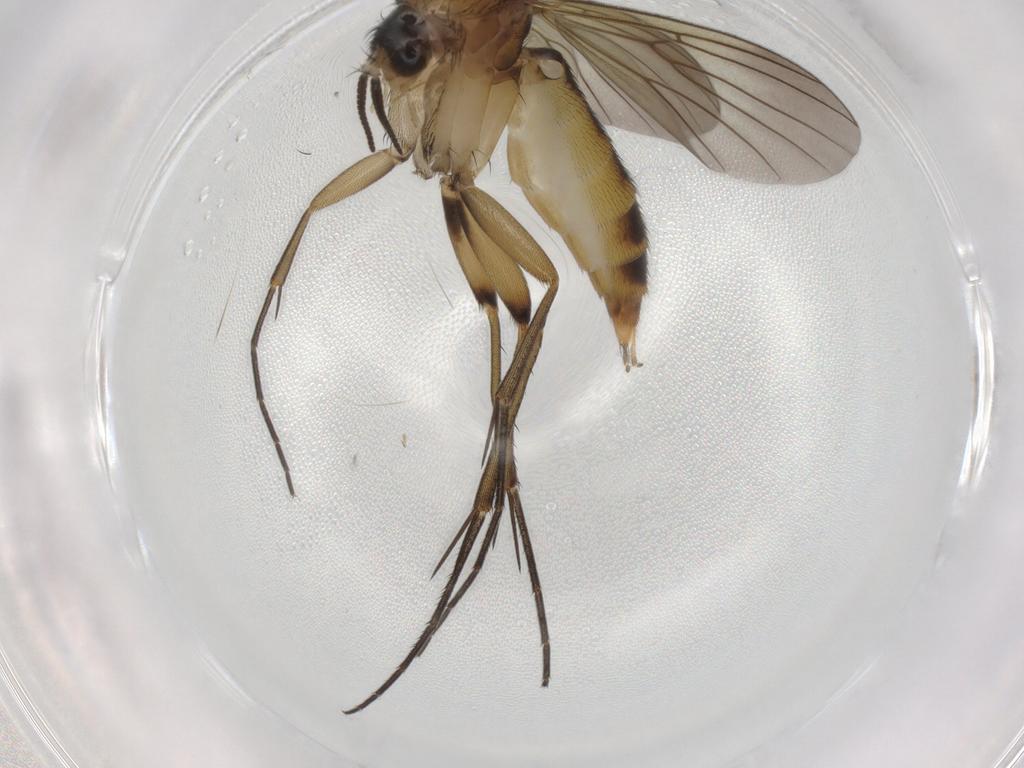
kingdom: Animalia
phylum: Arthropoda
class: Insecta
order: Diptera
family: Mycetophilidae
